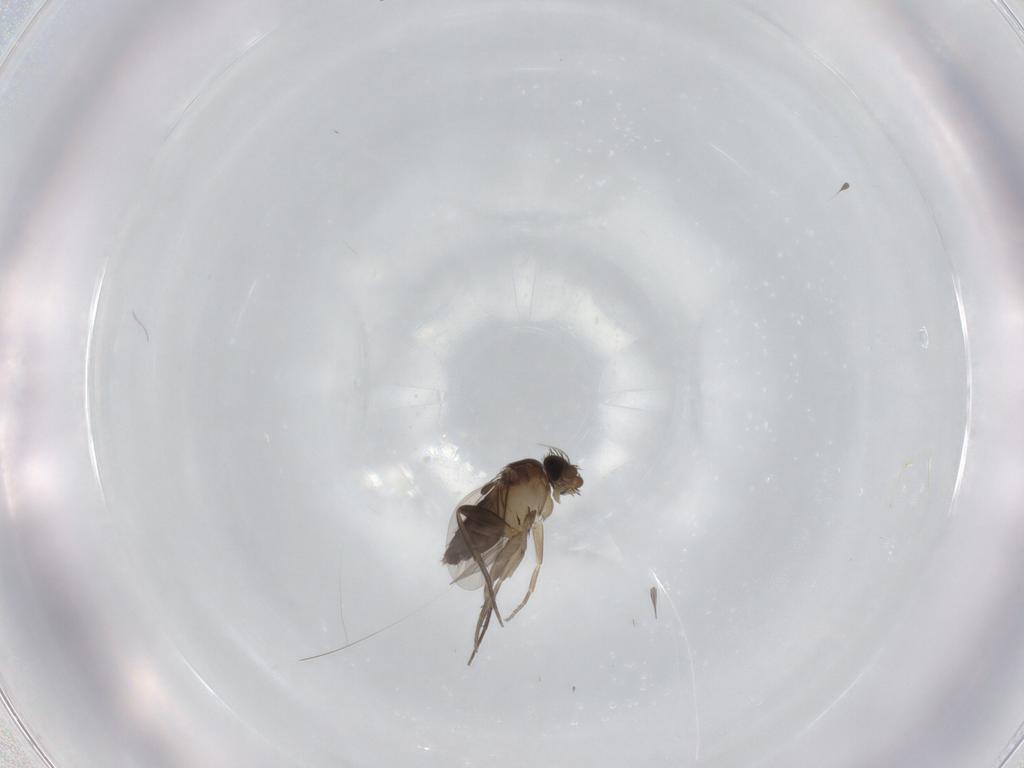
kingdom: Animalia
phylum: Arthropoda
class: Insecta
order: Diptera
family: Phoridae
